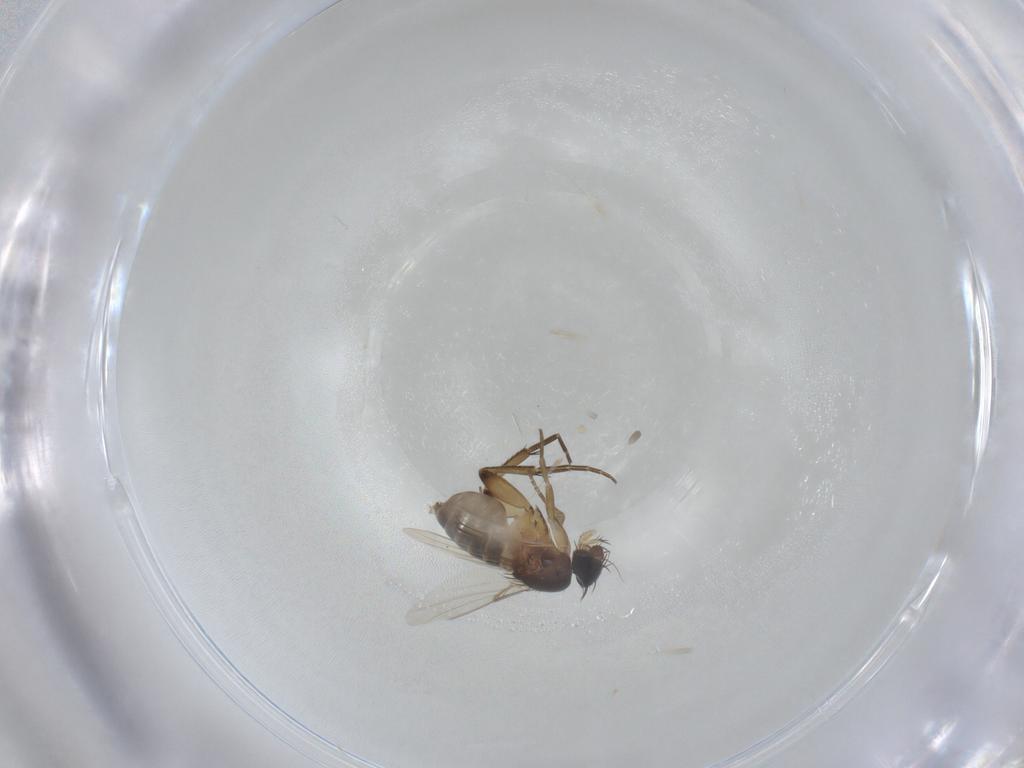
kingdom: Animalia
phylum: Arthropoda
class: Insecta
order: Diptera
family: Phoridae
